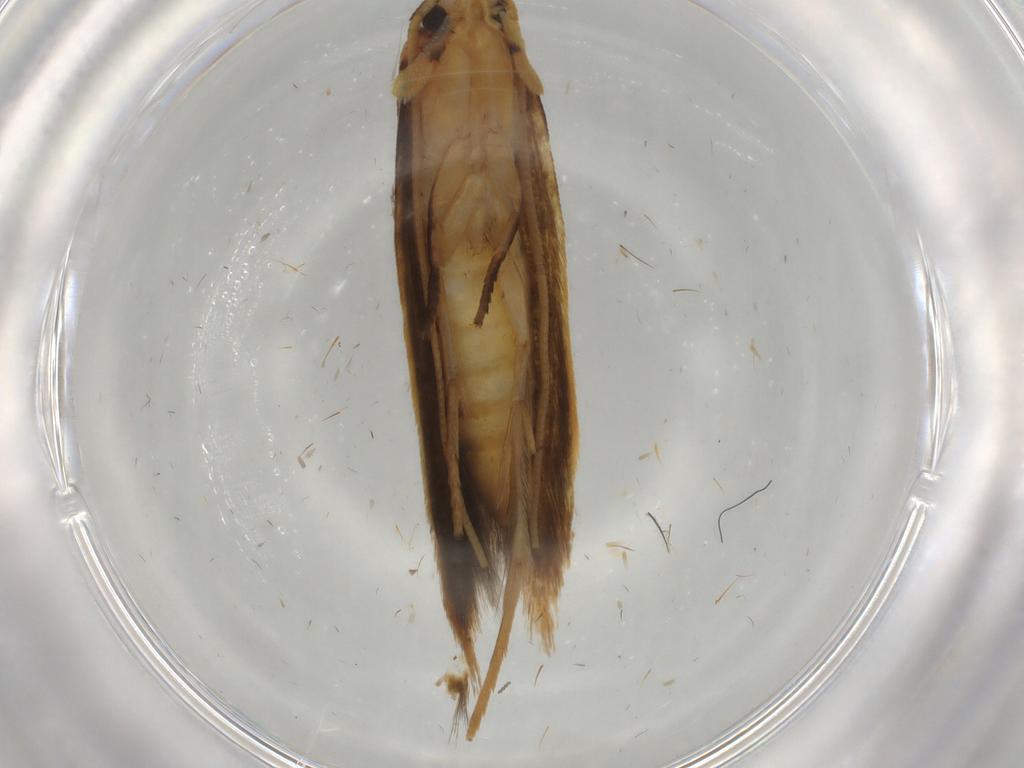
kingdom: Animalia
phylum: Arthropoda
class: Insecta
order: Lepidoptera
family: Tineidae
